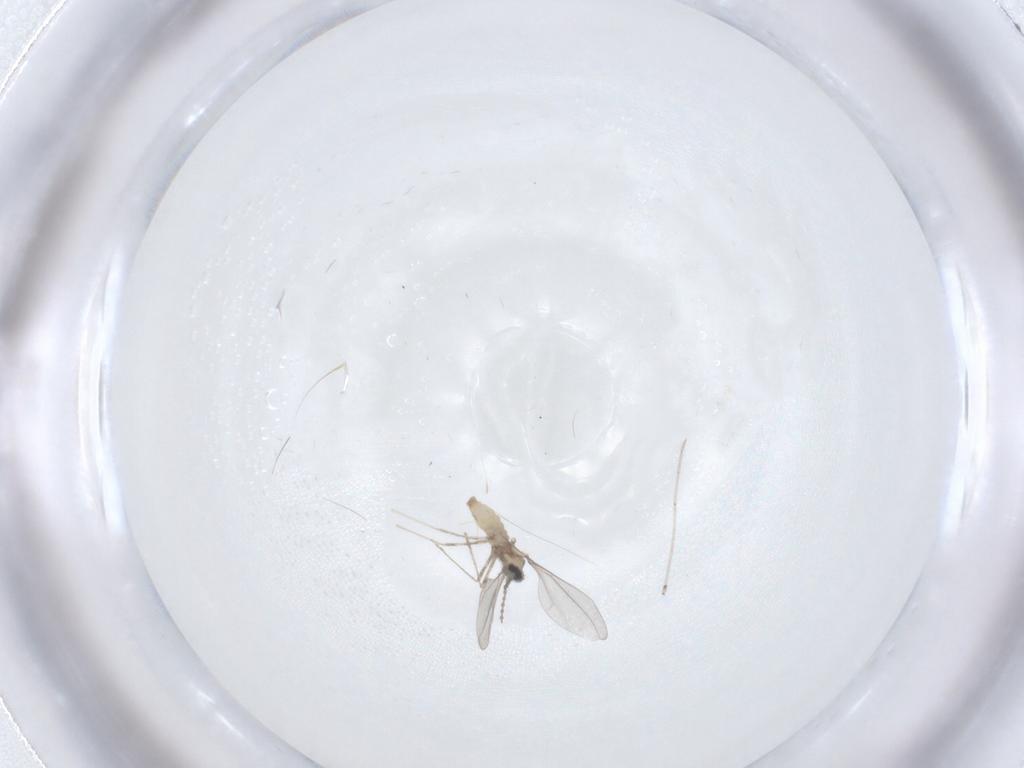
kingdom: Animalia
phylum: Arthropoda
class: Insecta
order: Diptera
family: Cecidomyiidae
